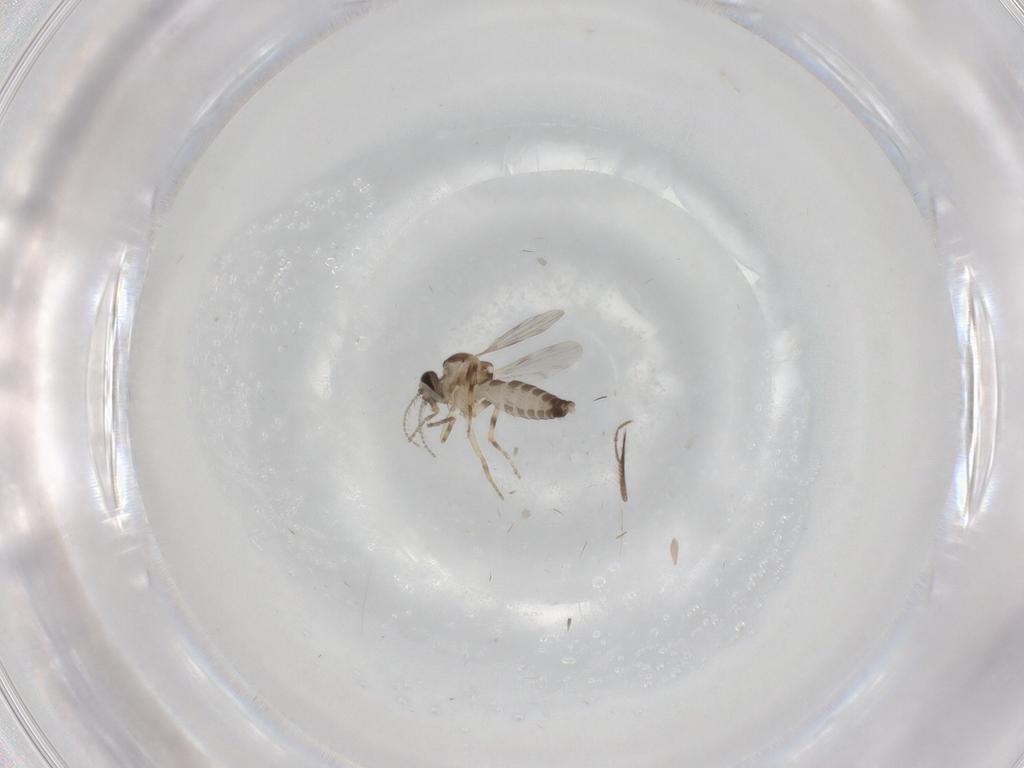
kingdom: Animalia
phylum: Arthropoda
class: Insecta
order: Diptera
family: Ceratopogonidae
